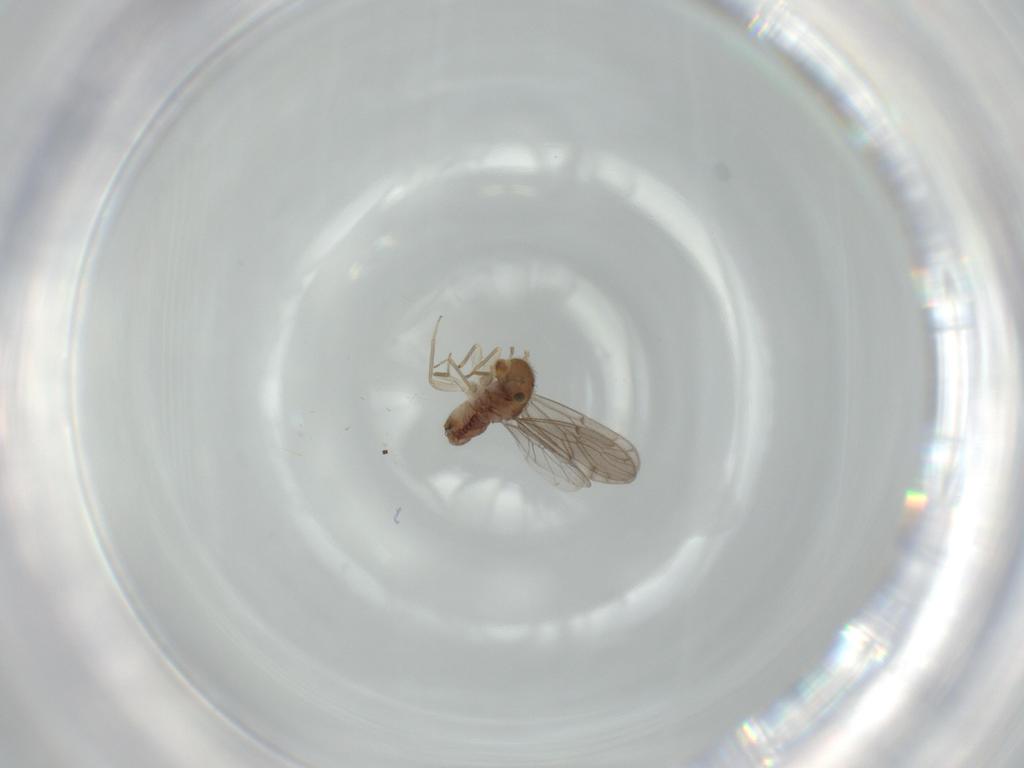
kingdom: Animalia
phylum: Arthropoda
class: Insecta
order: Psocodea
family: Ectopsocidae
